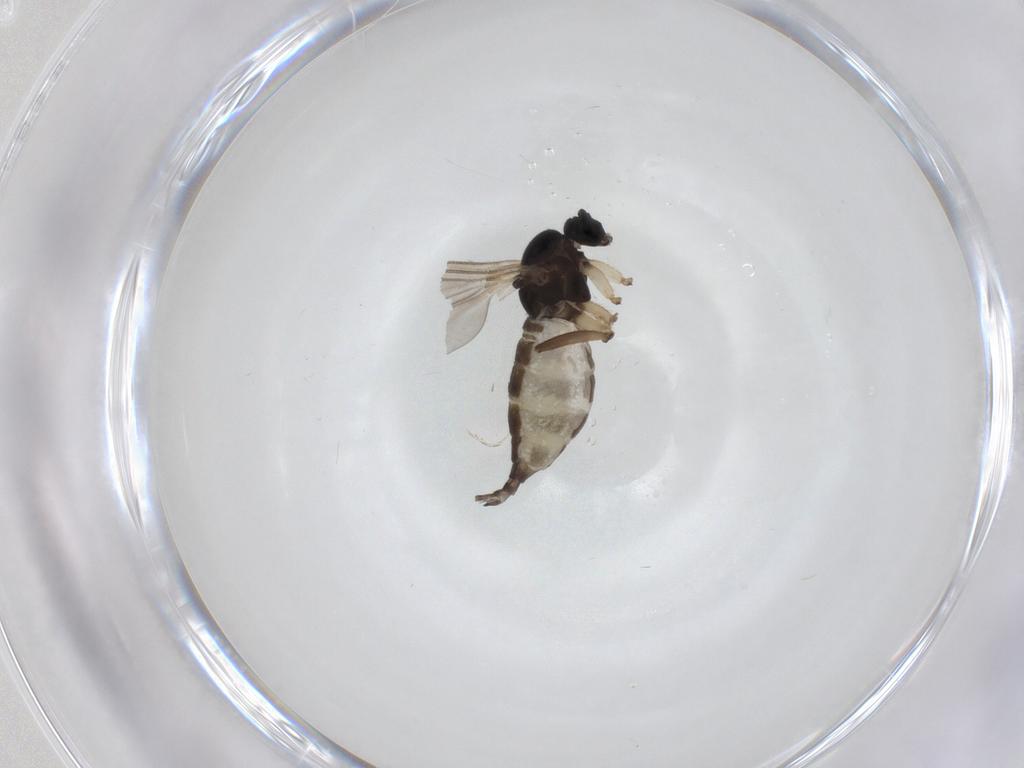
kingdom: Animalia
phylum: Arthropoda
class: Insecta
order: Diptera
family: Sciaridae
